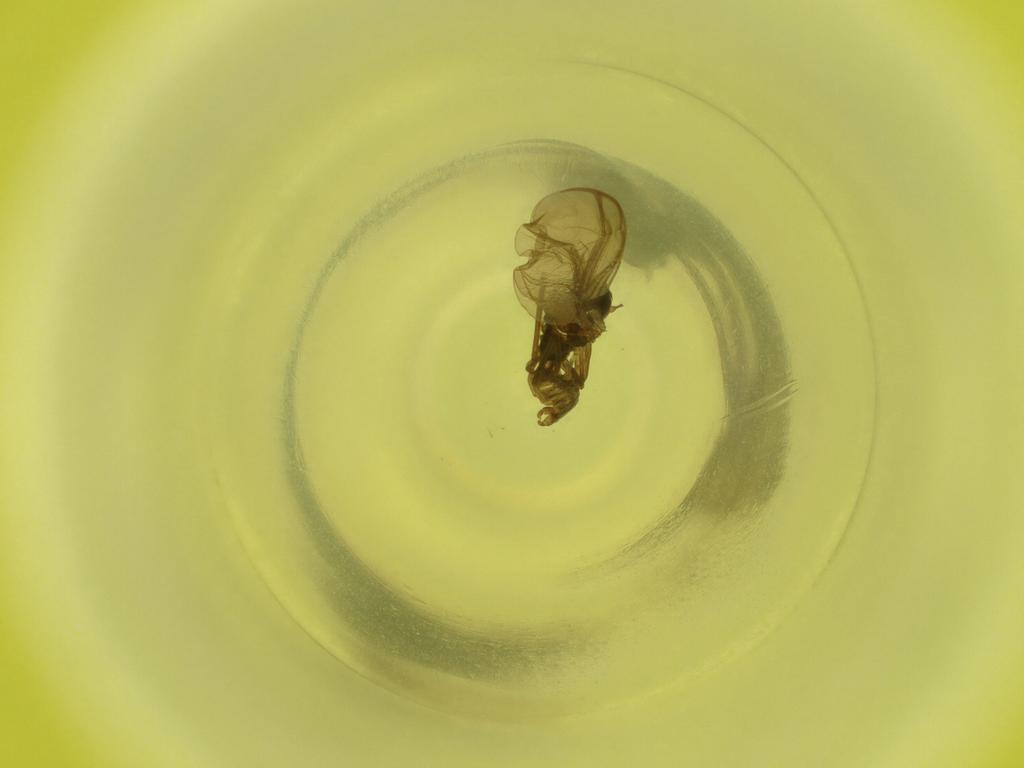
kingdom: Animalia
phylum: Arthropoda
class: Insecta
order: Diptera
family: Cecidomyiidae
